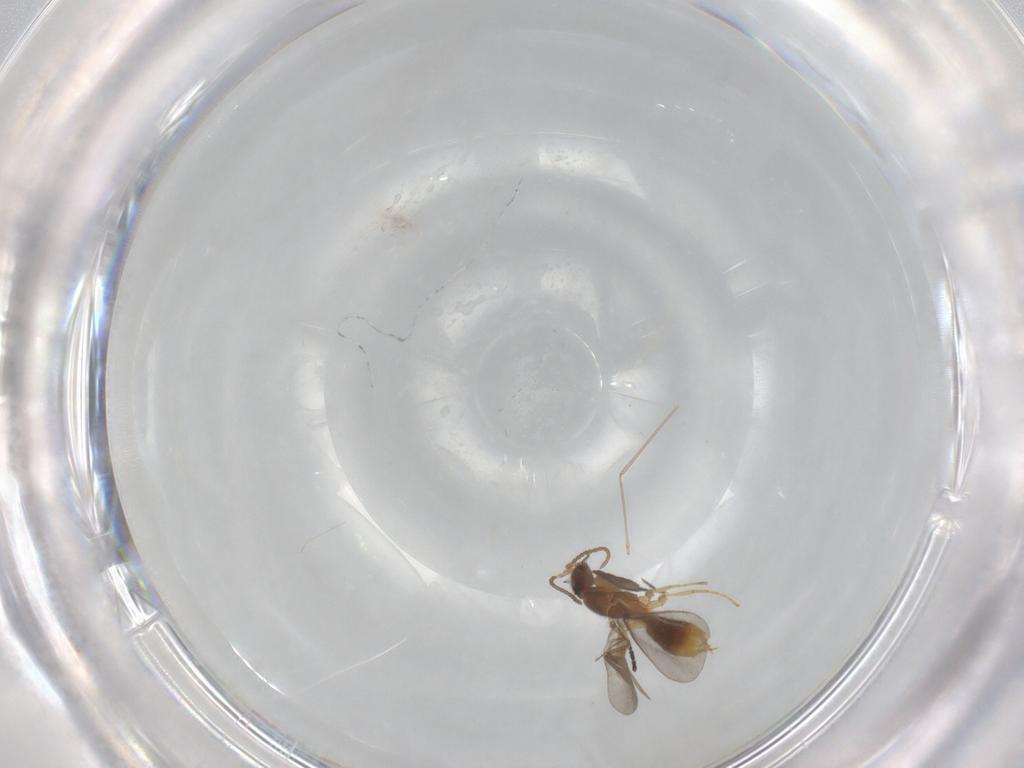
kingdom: Animalia
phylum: Arthropoda
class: Insecta
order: Hymenoptera
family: Formicidae
